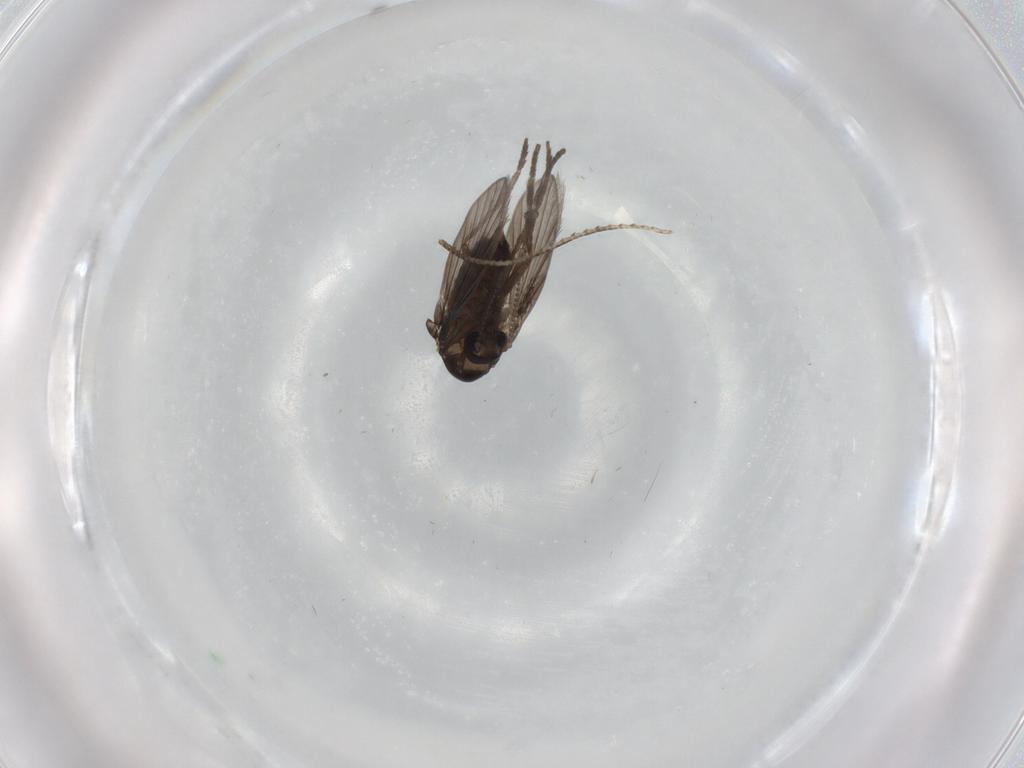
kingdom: Animalia
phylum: Arthropoda
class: Insecta
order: Diptera
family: Psychodidae
